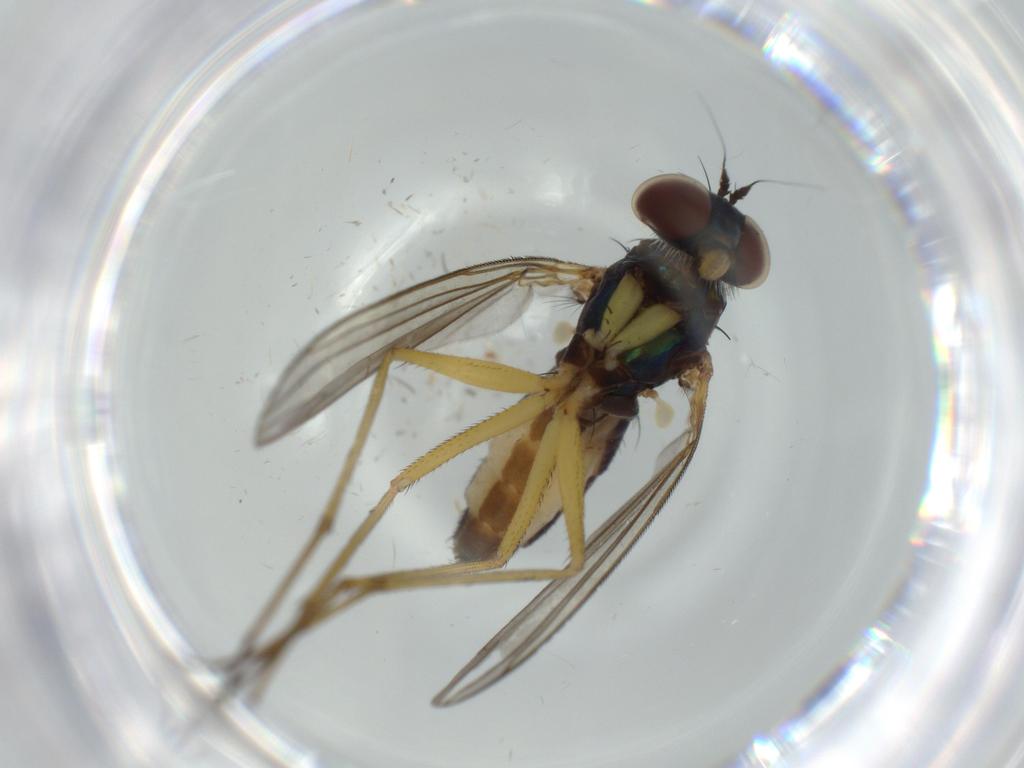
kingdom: Animalia
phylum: Arthropoda
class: Insecta
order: Diptera
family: Dolichopodidae
